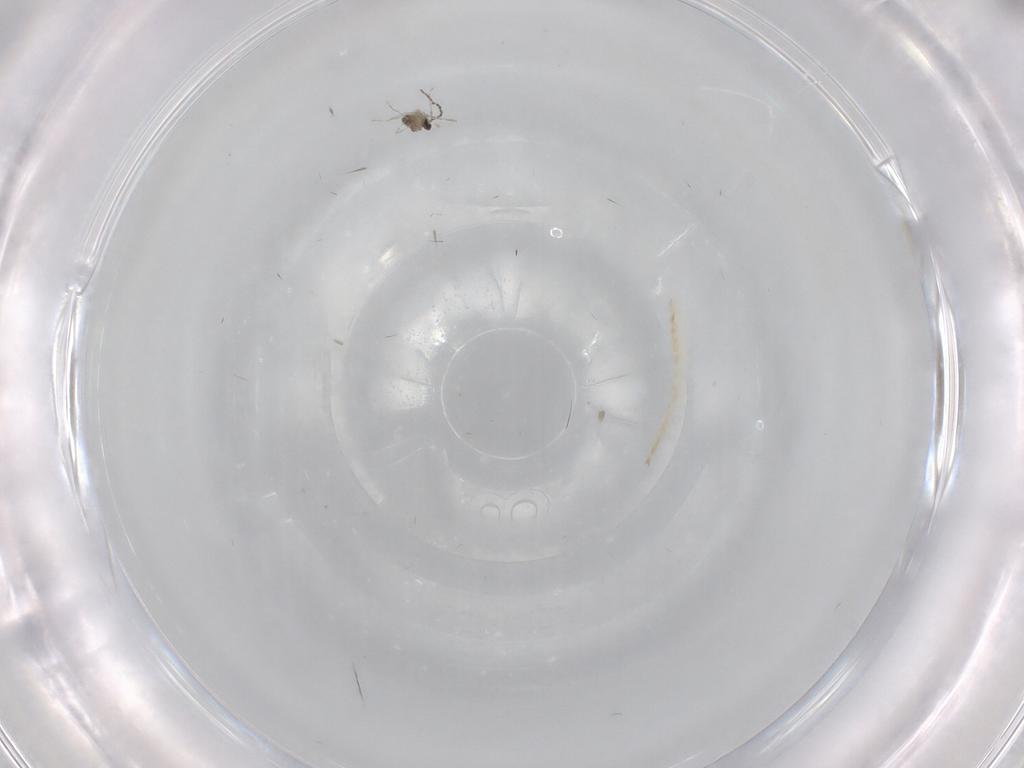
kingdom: Animalia
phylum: Arthropoda
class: Insecta
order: Diptera
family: Chironomidae
